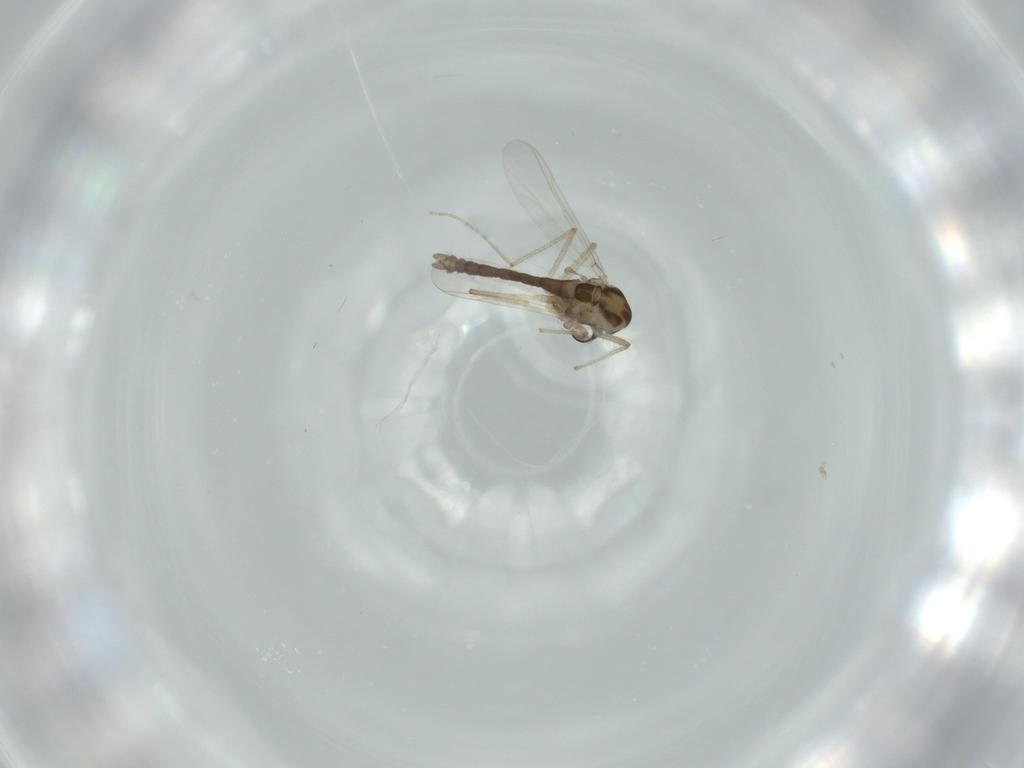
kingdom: Animalia
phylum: Arthropoda
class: Insecta
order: Diptera
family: Chironomidae
